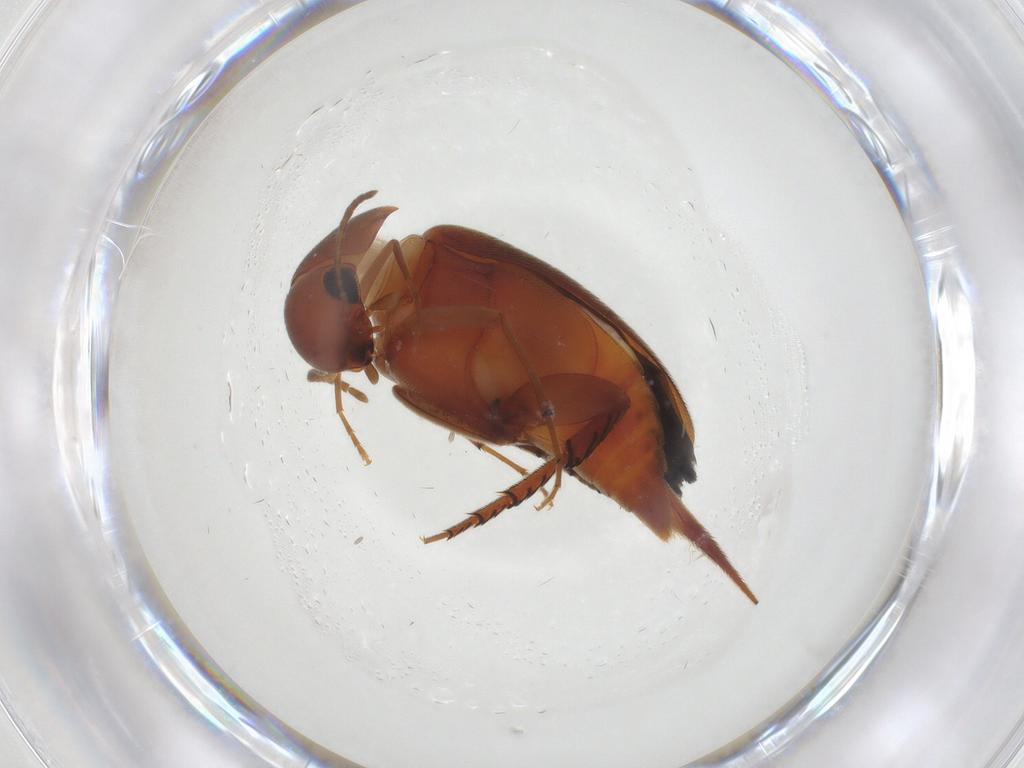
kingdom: Animalia
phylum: Arthropoda
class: Insecta
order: Coleoptera
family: Mordellidae
